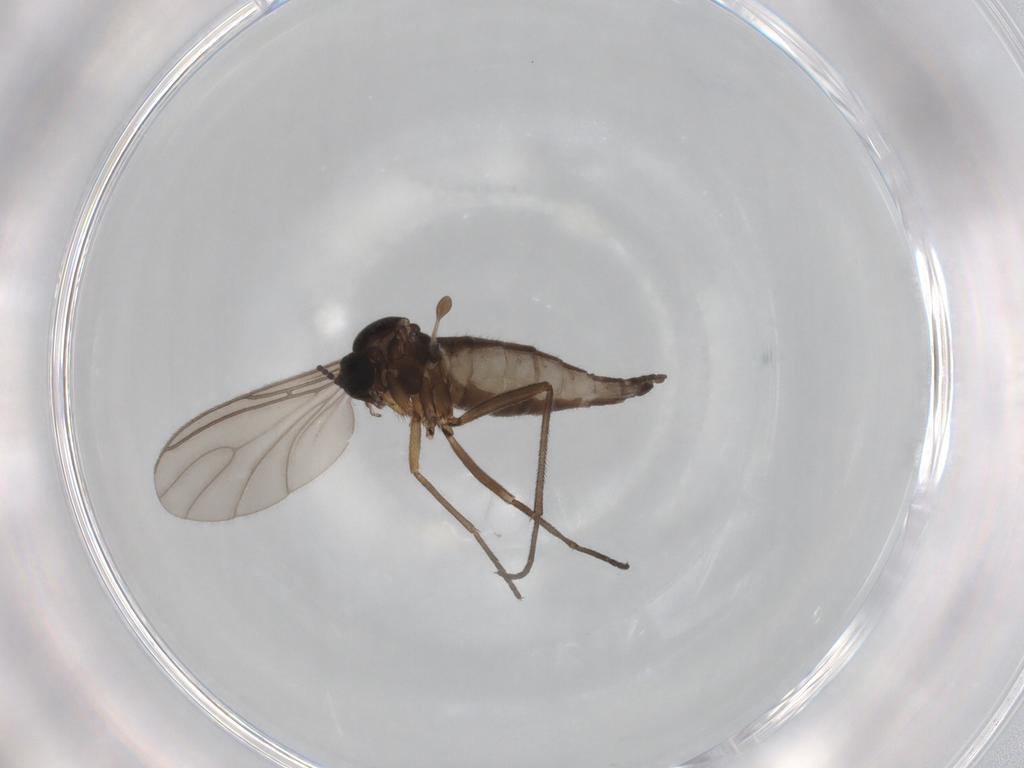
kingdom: Animalia
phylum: Arthropoda
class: Insecta
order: Diptera
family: Sciaridae
